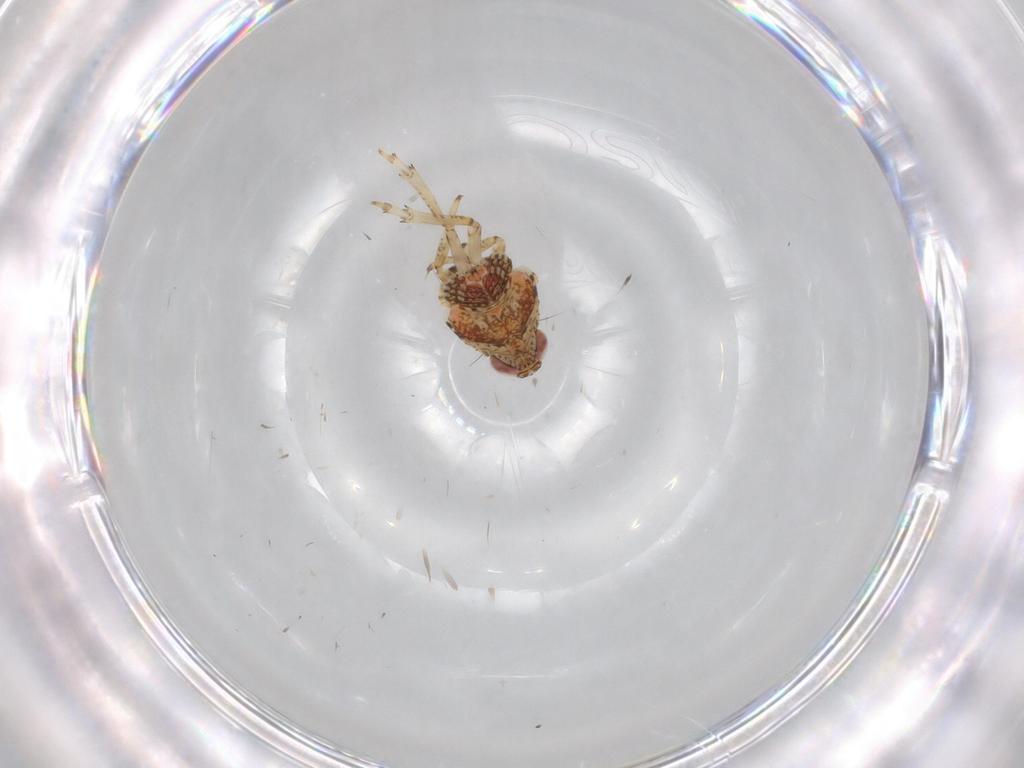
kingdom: Animalia
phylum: Arthropoda
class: Insecta
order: Hemiptera
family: Issidae
